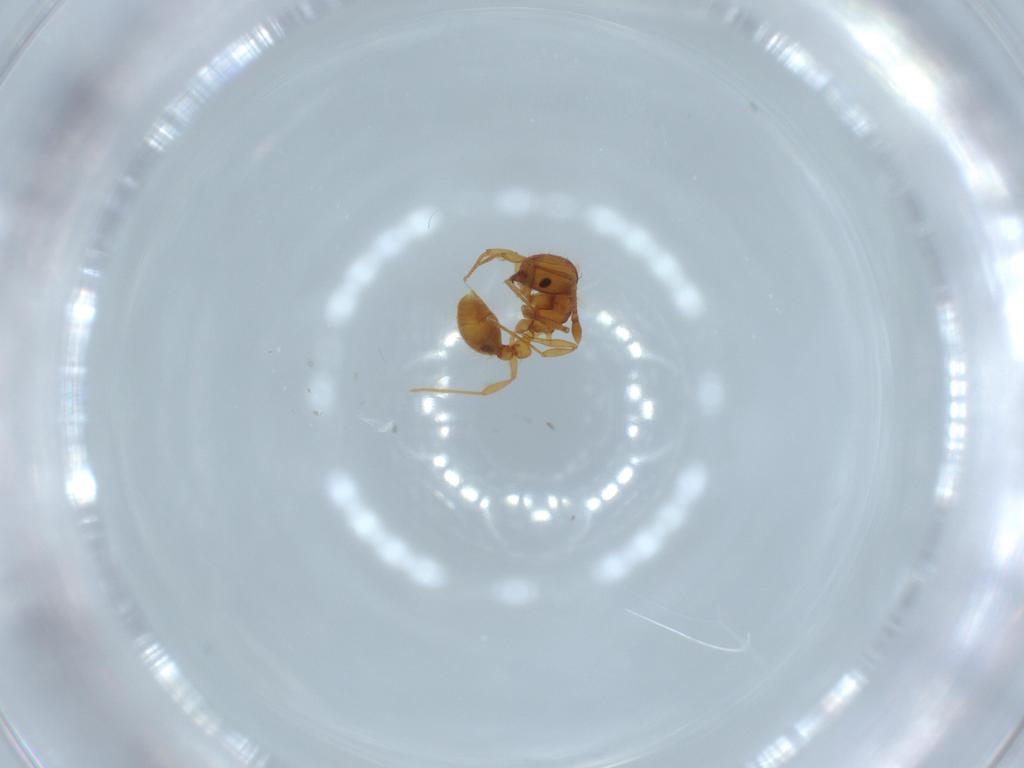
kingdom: Animalia
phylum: Arthropoda
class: Insecta
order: Hymenoptera
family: Formicidae
